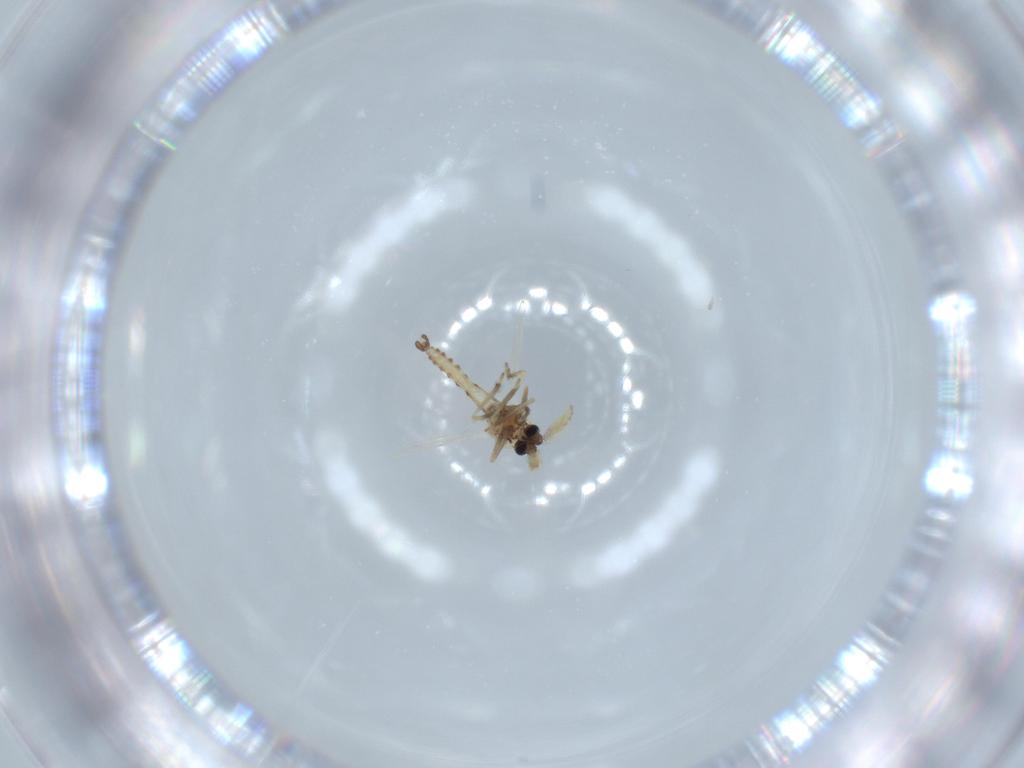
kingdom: Animalia
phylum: Arthropoda
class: Insecta
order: Diptera
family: Ceratopogonidae
